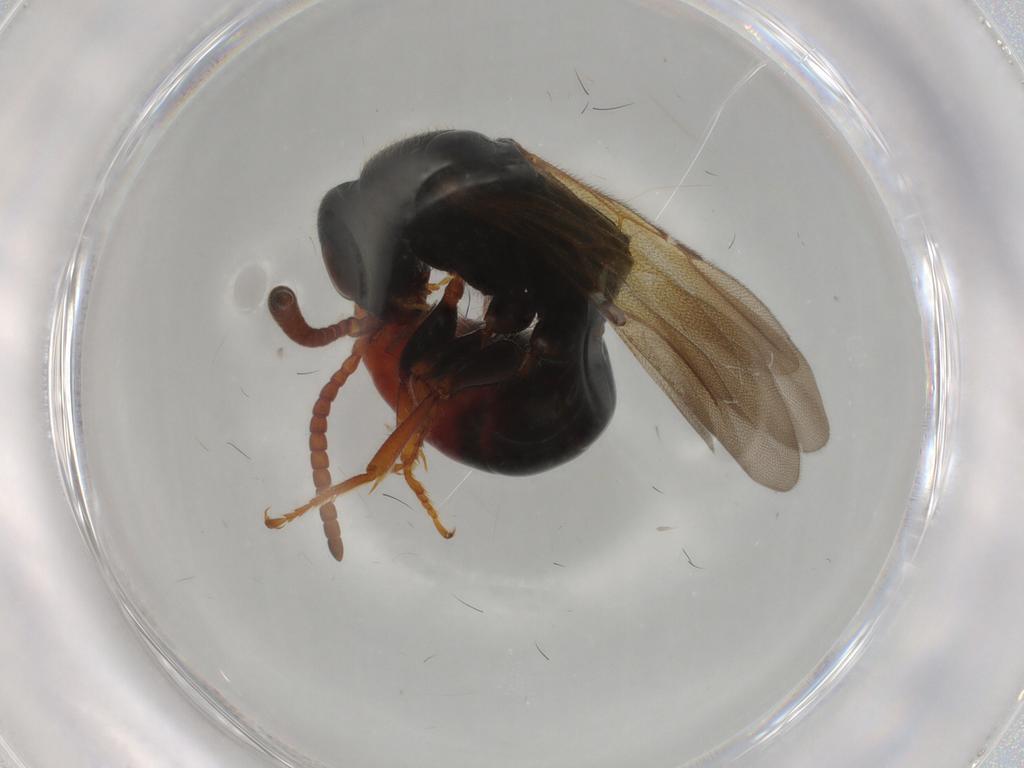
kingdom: Animalia
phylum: Arthropoda
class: Insecta
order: Hymenoptera
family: Bethylidae
